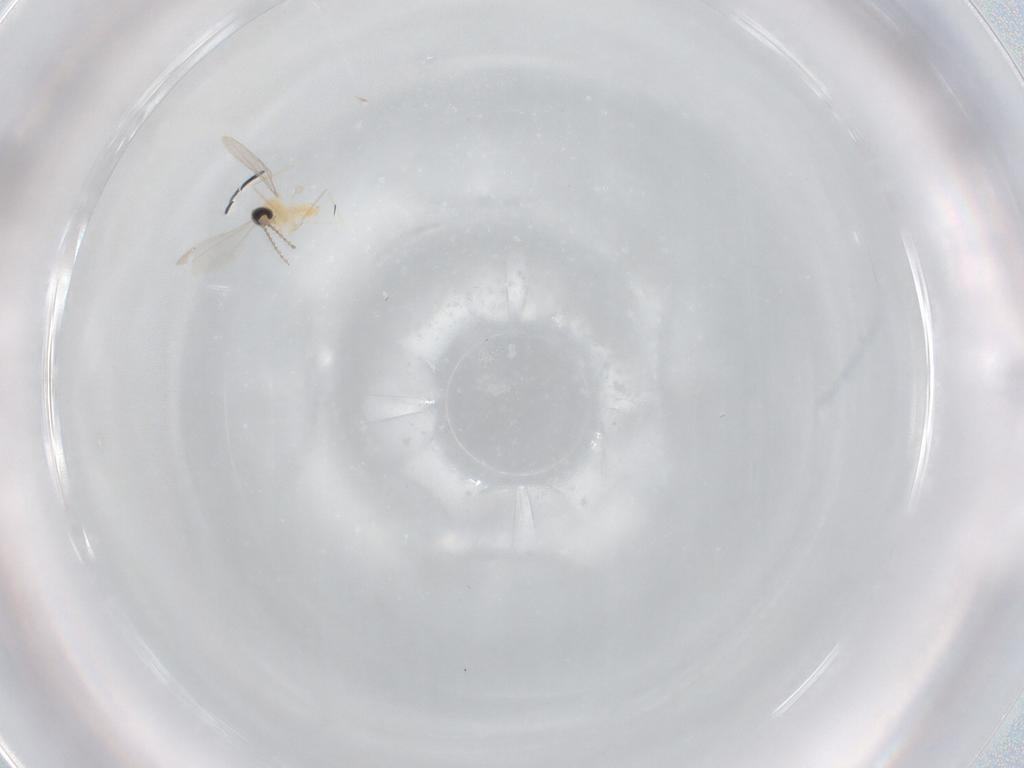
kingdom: Animalia
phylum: Arthropoda
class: Insecta
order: Diptera
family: Cecidomyiidae
